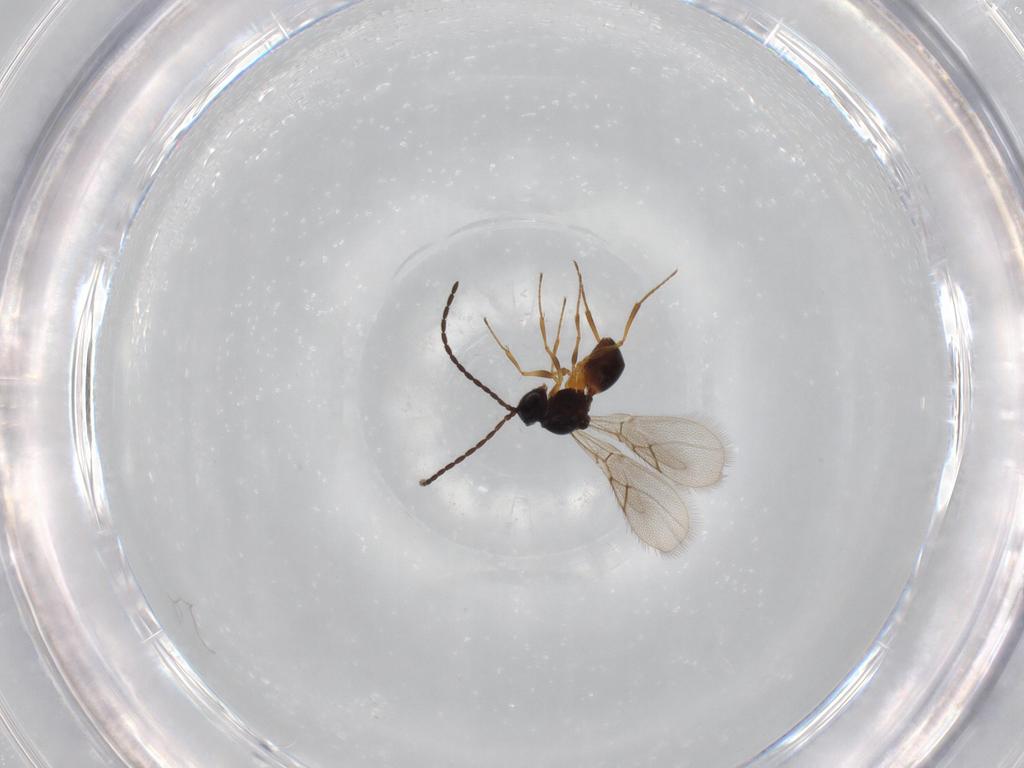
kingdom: Animalia
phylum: Arthropoda
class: Insecta
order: Hymenoptera
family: Figitidae
